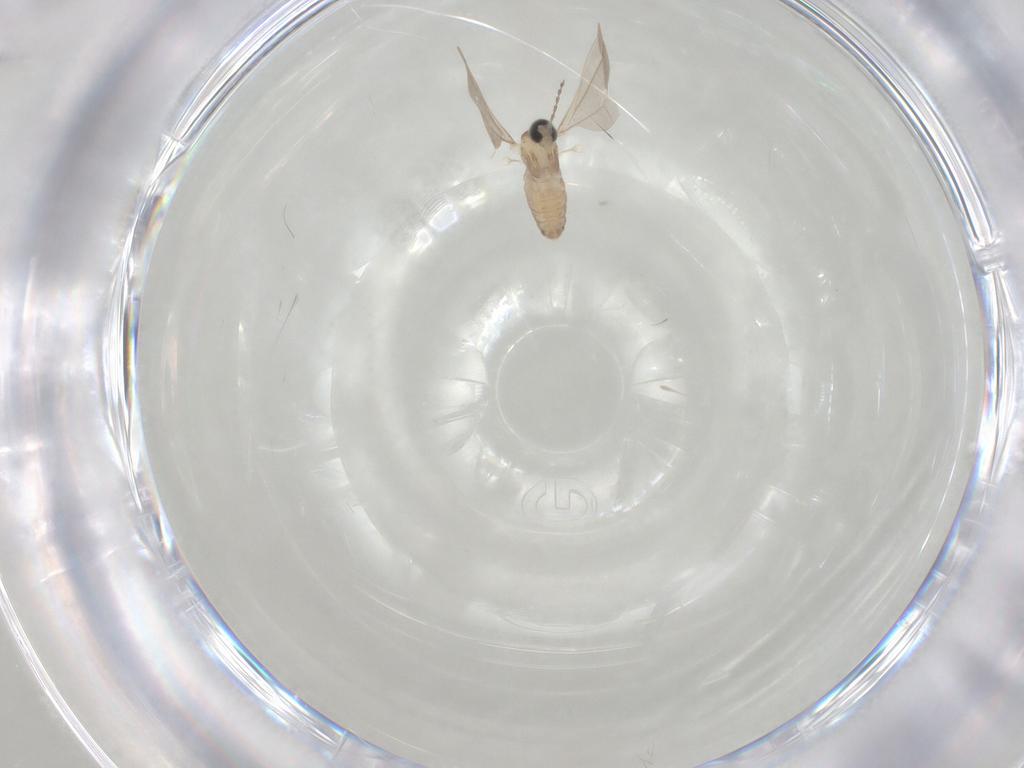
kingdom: Animalia
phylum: Arthropoda
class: Insecta
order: Diptera
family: Cecidomyiidae
